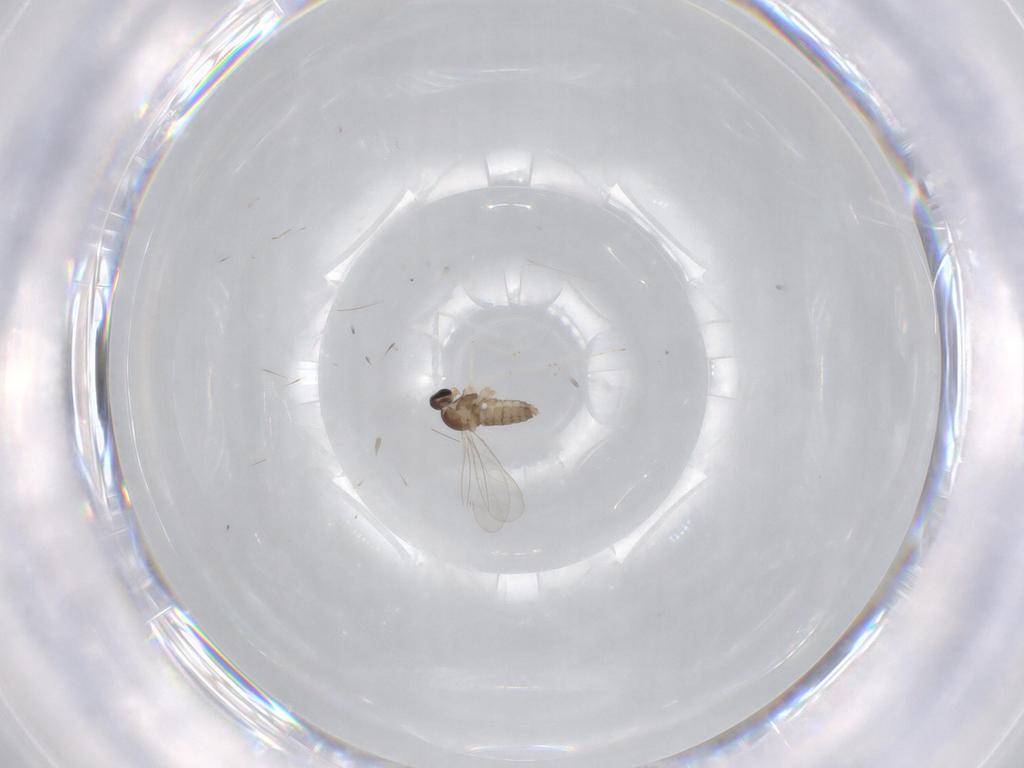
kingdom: Animalia
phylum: Arthropoda
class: Insecta
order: Diptera
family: Cecidomyiidae
